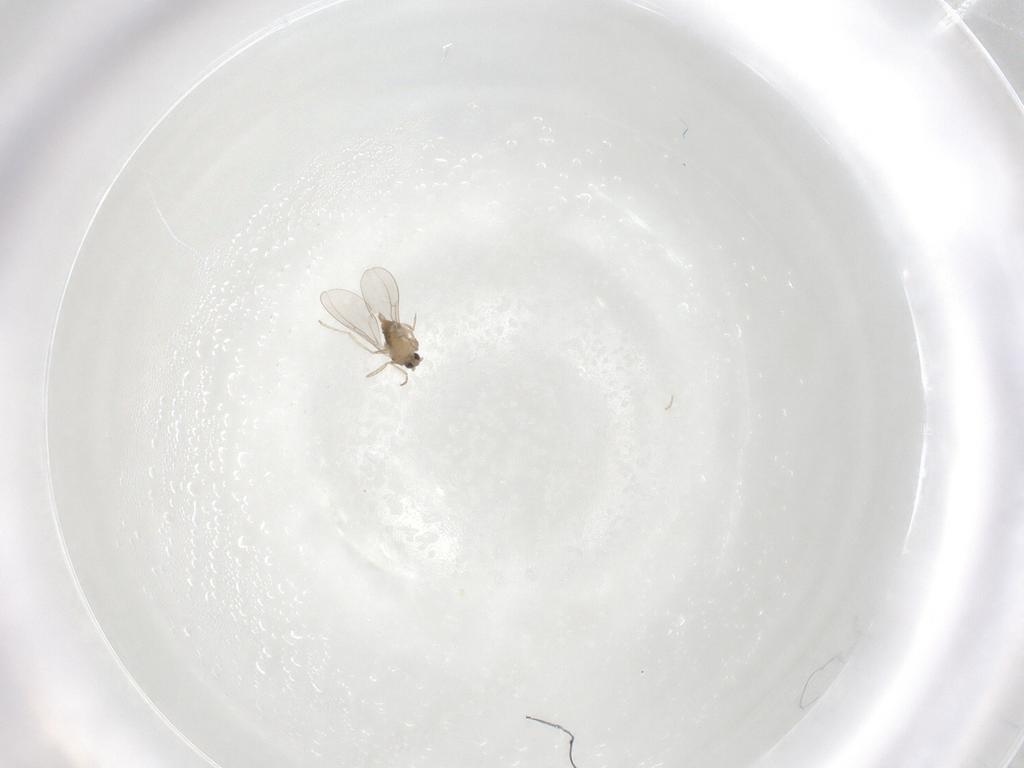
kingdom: Animalia
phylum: Arthropoda
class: Insecta
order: Diptera
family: Cecidomyiidae
